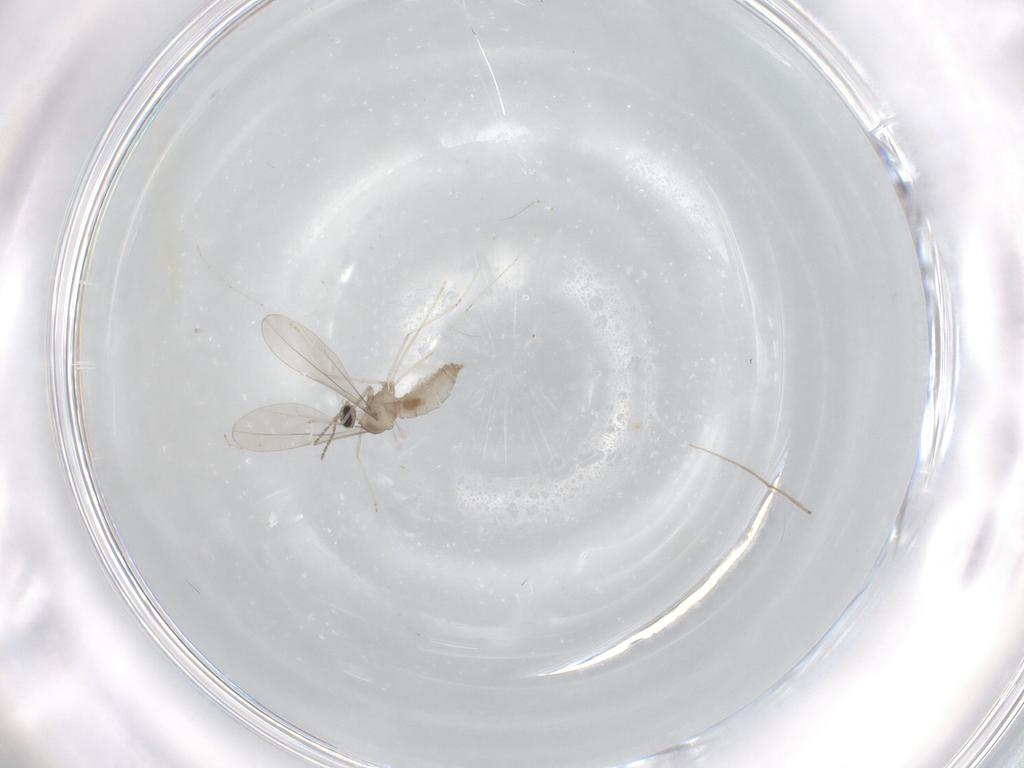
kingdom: Animalia
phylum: Arthropoda
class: Insecta
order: Diptera
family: Chironomidae
